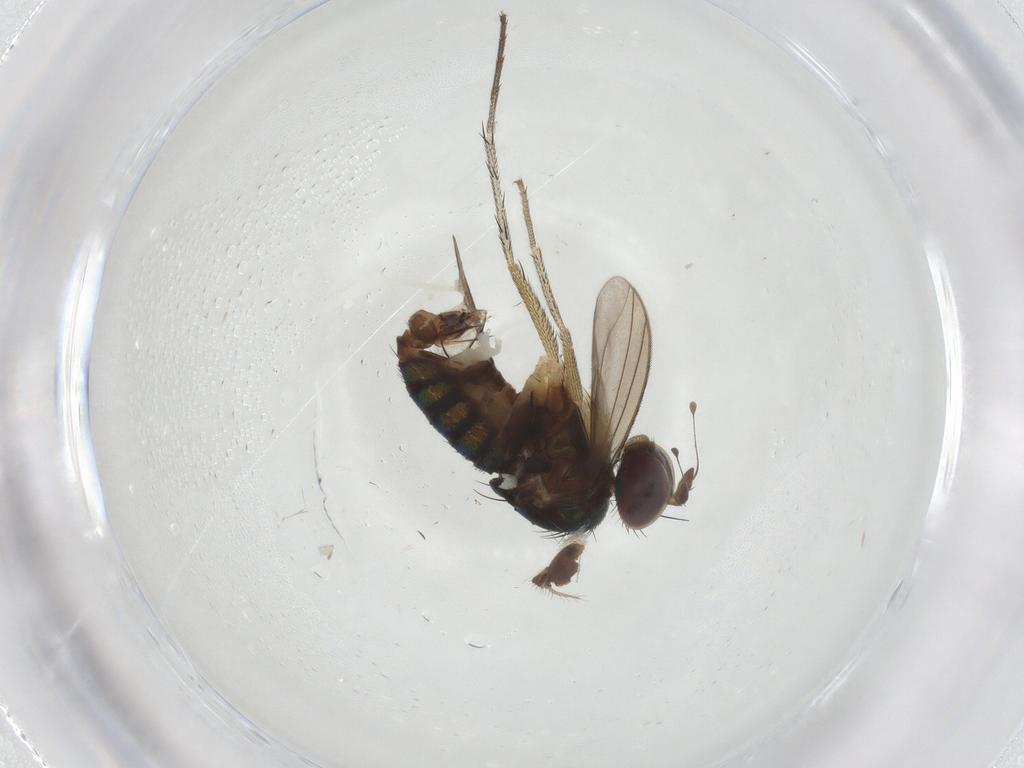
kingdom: Animalia
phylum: Arthropoda
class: Insecta
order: Diptera
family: Dolichopodidae
